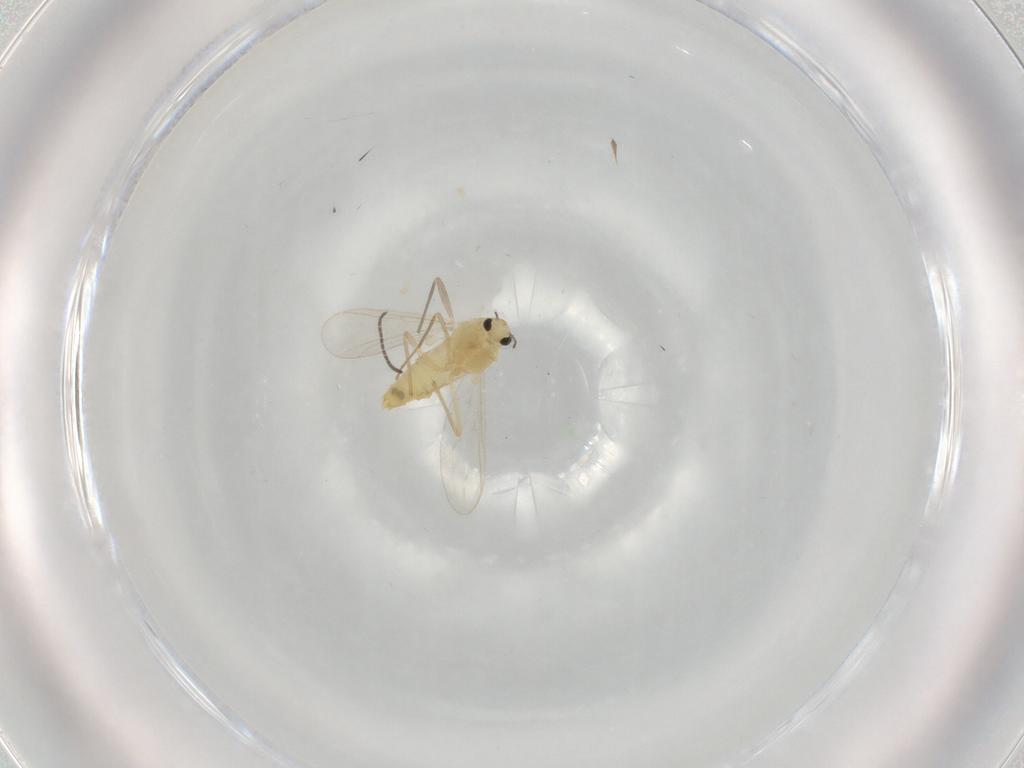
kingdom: Animalia
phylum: Arthropoda
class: Insecta
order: Diptera
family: Chironomidae
